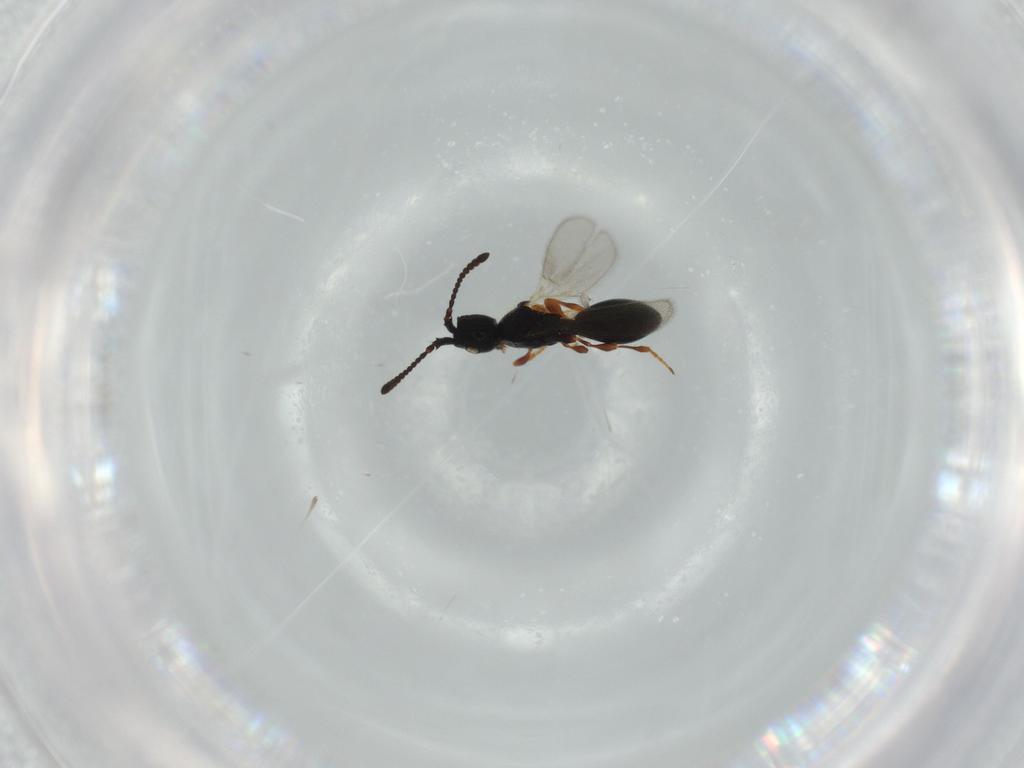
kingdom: Animalia
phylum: Arthropoda
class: Insecta
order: Hymenoptera
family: Diapriidae
